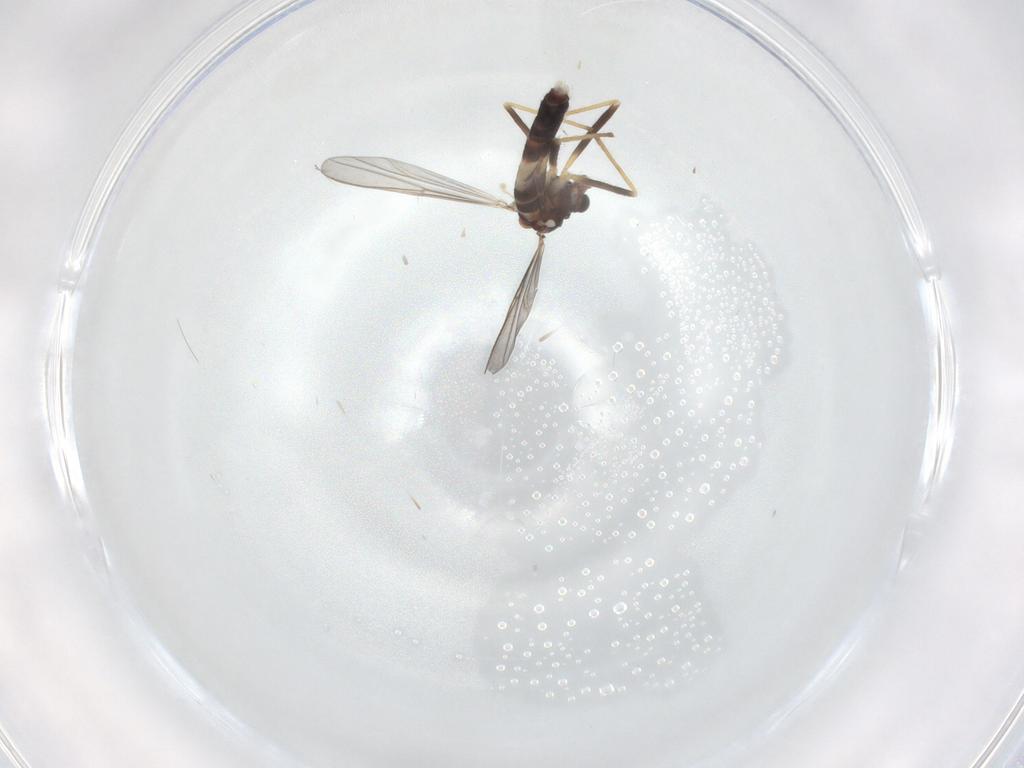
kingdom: Animalia
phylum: Arthropoda
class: Insecta
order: Diptera
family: Chironomidae
